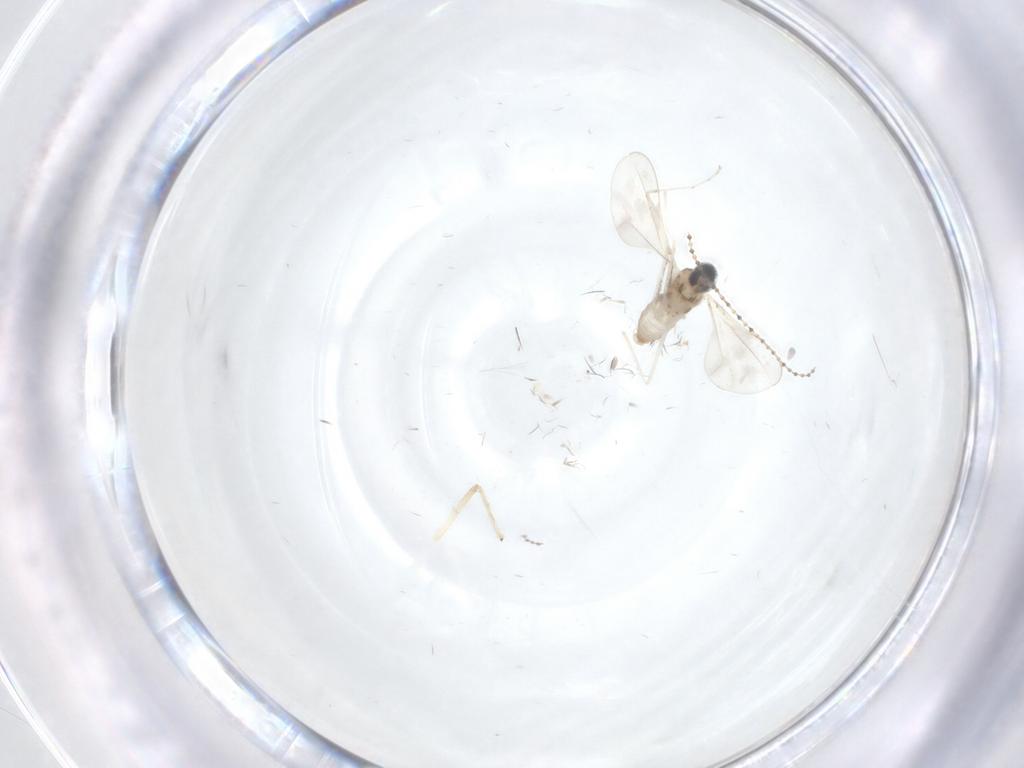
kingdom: Animalia
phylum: Arthropoda
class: Insecta
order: Diptera
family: Cecidomyiidae
